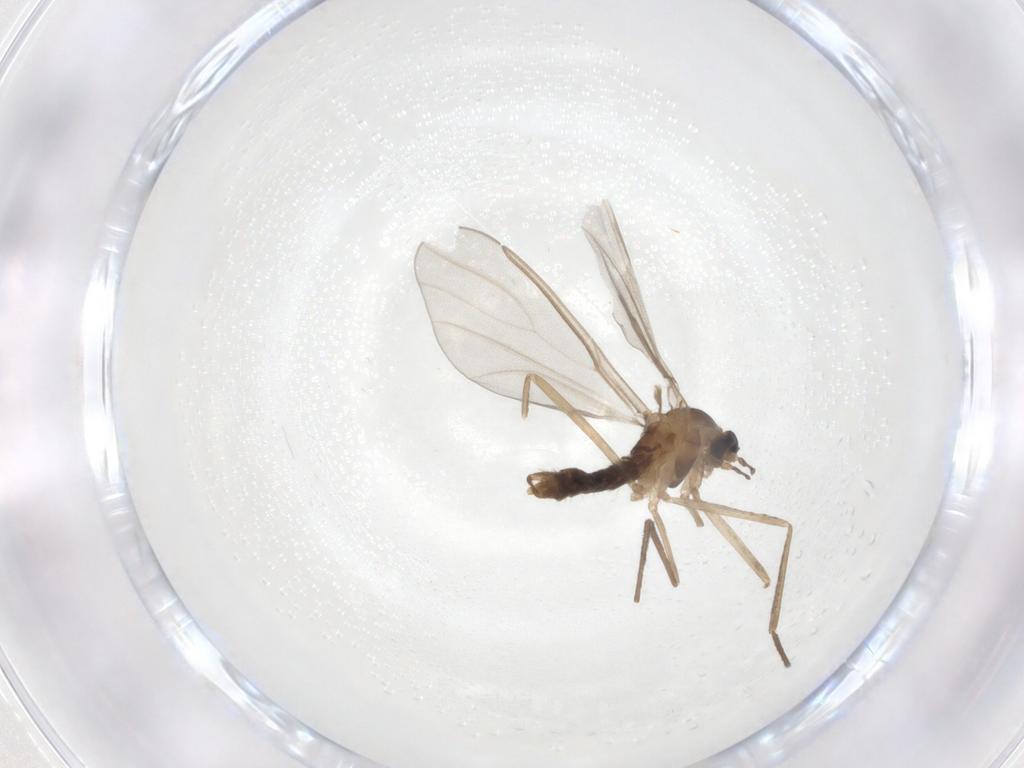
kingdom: Animalia
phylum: Arthropoda
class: Insecta
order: Diptera
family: Cecidomyiidae
